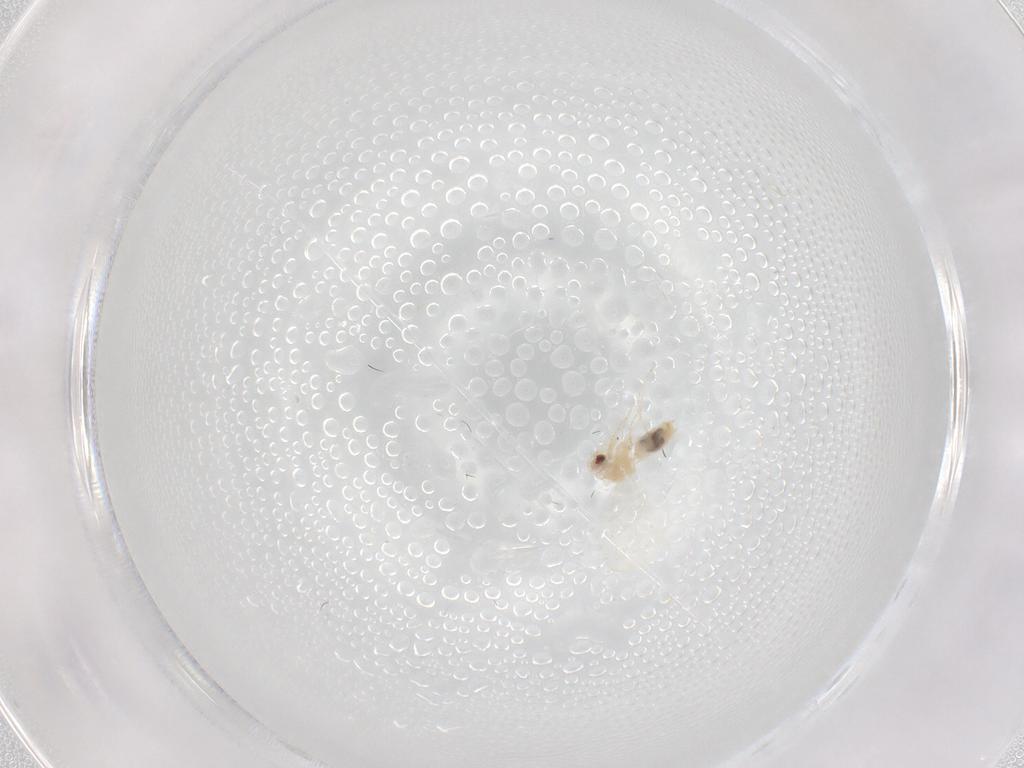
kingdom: Animalia
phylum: Arthropoda
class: Insecta
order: Hemiptera
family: Aleyrodidae
